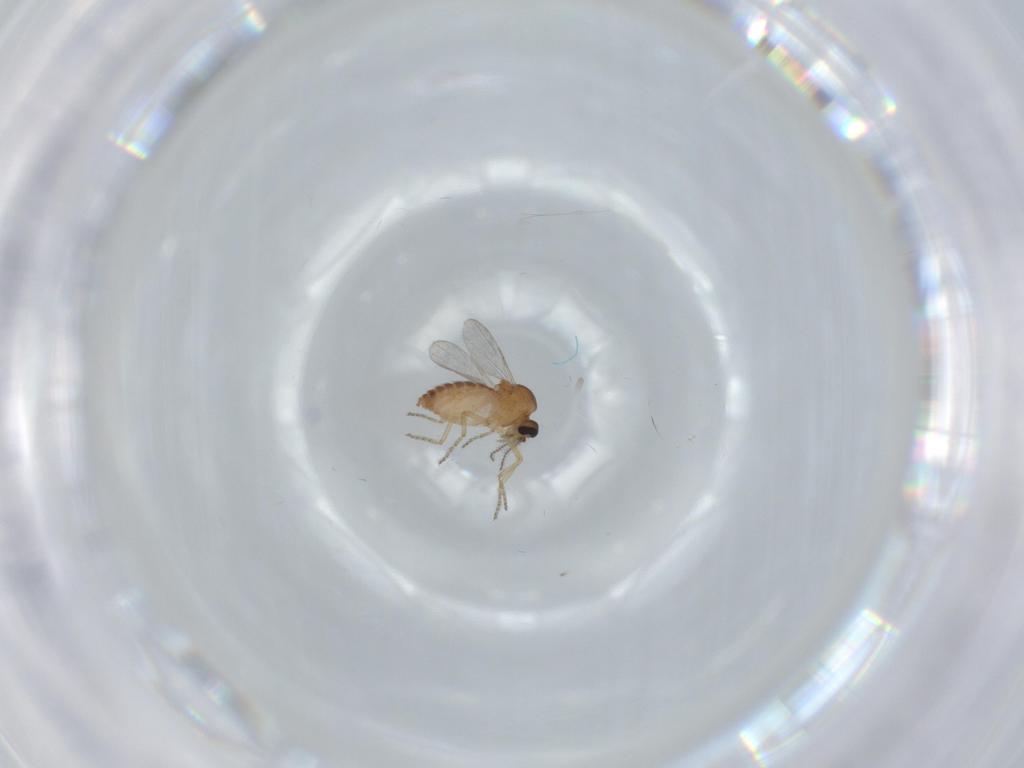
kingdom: Animalia
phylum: Arthropoda
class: Insecta
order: Diptera
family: Ceratopogonidae
